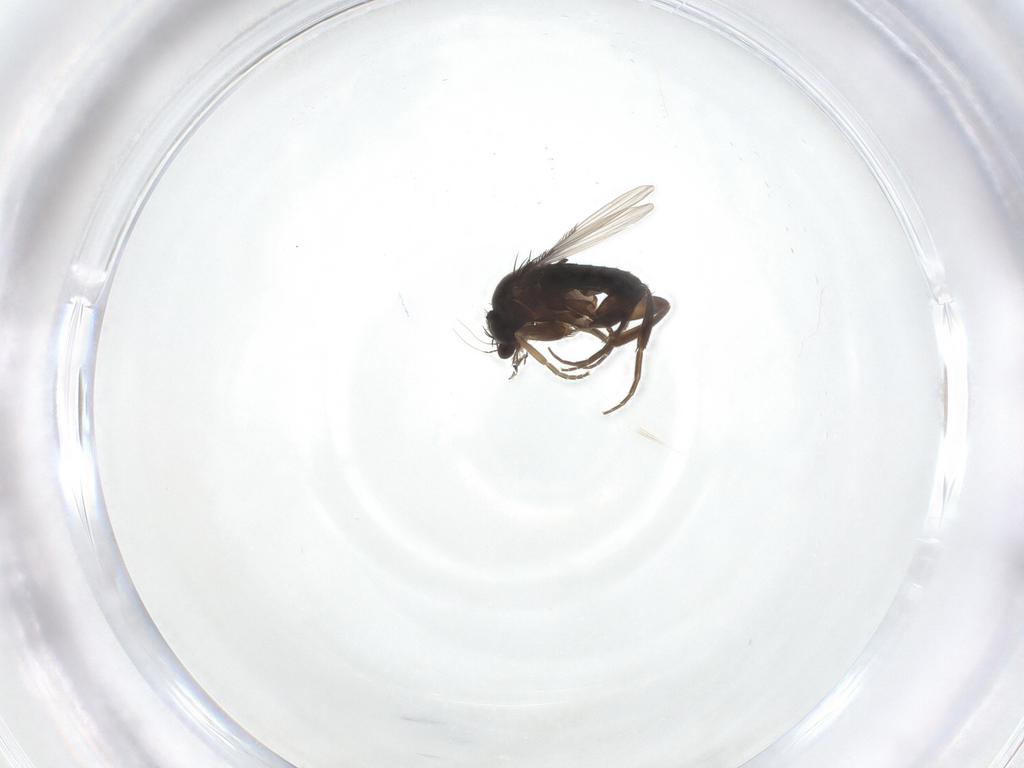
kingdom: Animalia
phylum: Arthropoda
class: Insecta
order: Diptera
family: Phoridae
